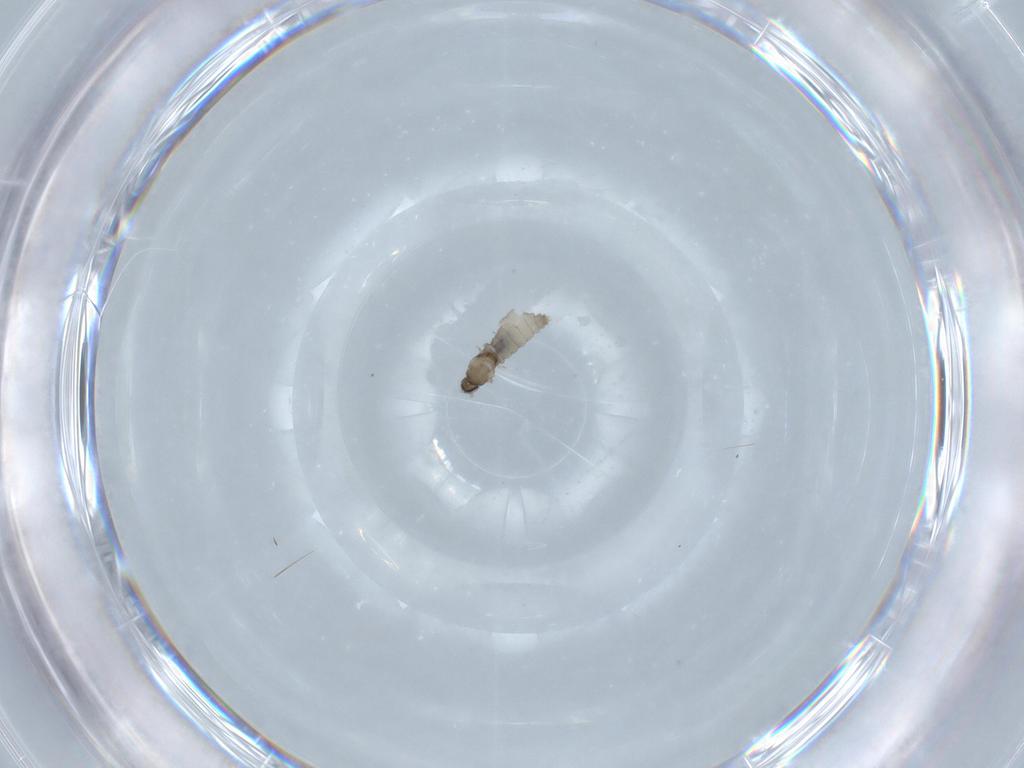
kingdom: Animalia
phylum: Arthropoda
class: Insecta
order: Diptera
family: Cecidomyiidae
